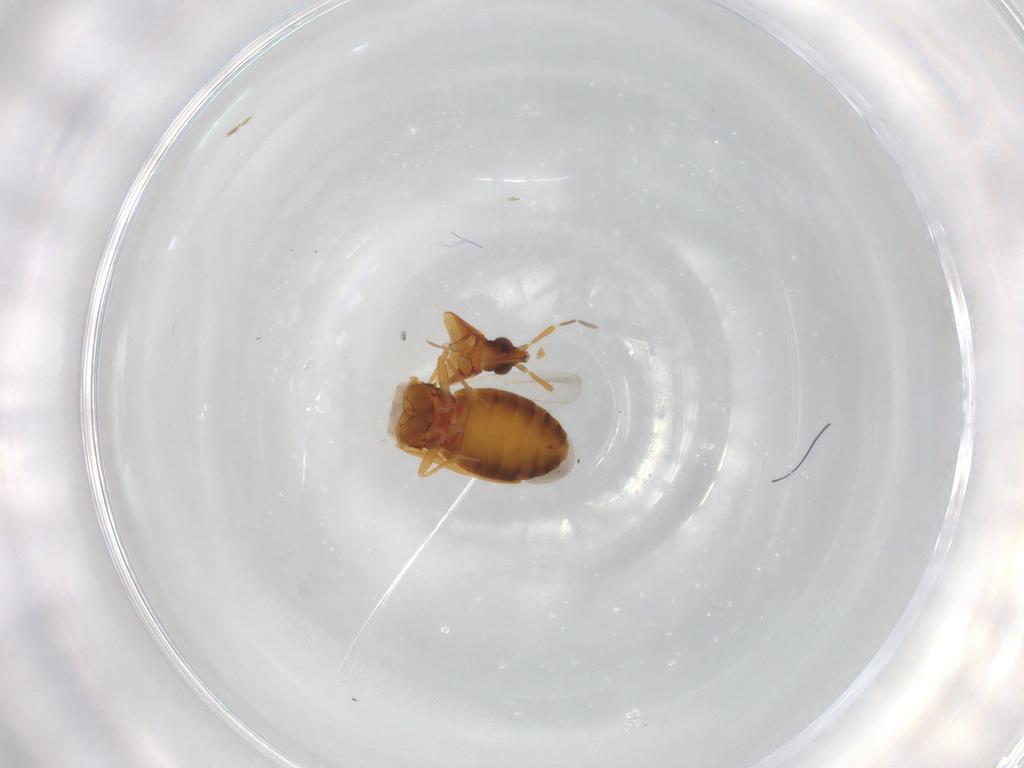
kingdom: Animalia
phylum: Arthropoda
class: Insecta
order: Hemiptera
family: Anthocoridae
